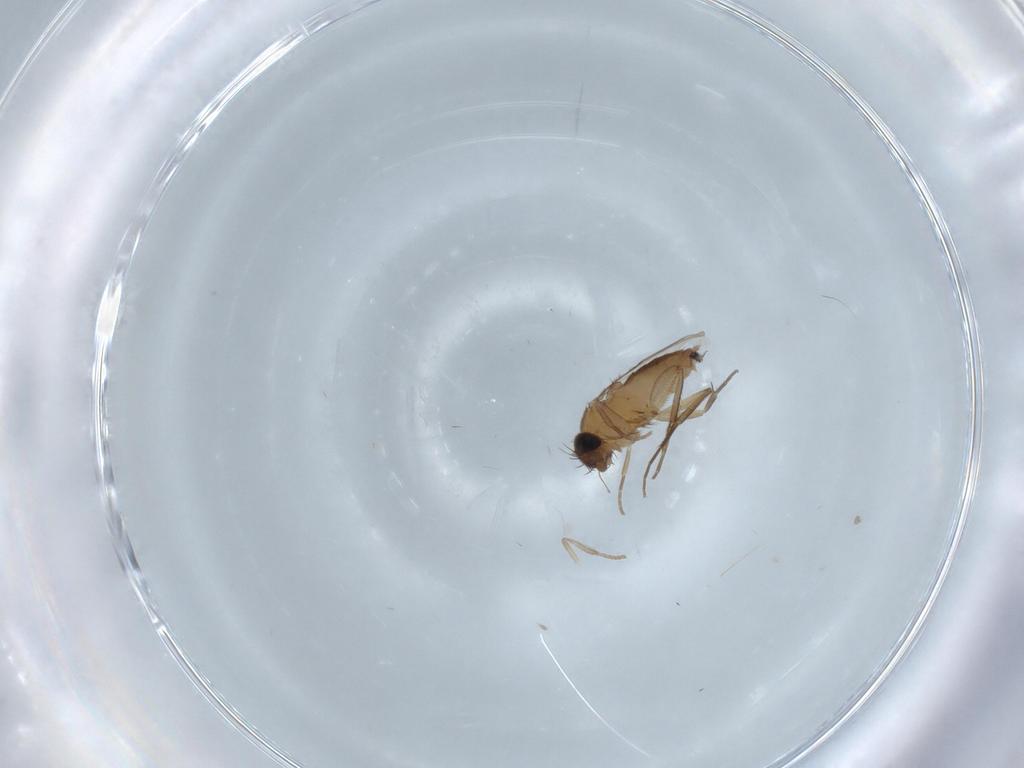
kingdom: Animalia
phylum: Arthropoda
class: Insecta
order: Diptera
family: Phoridae
